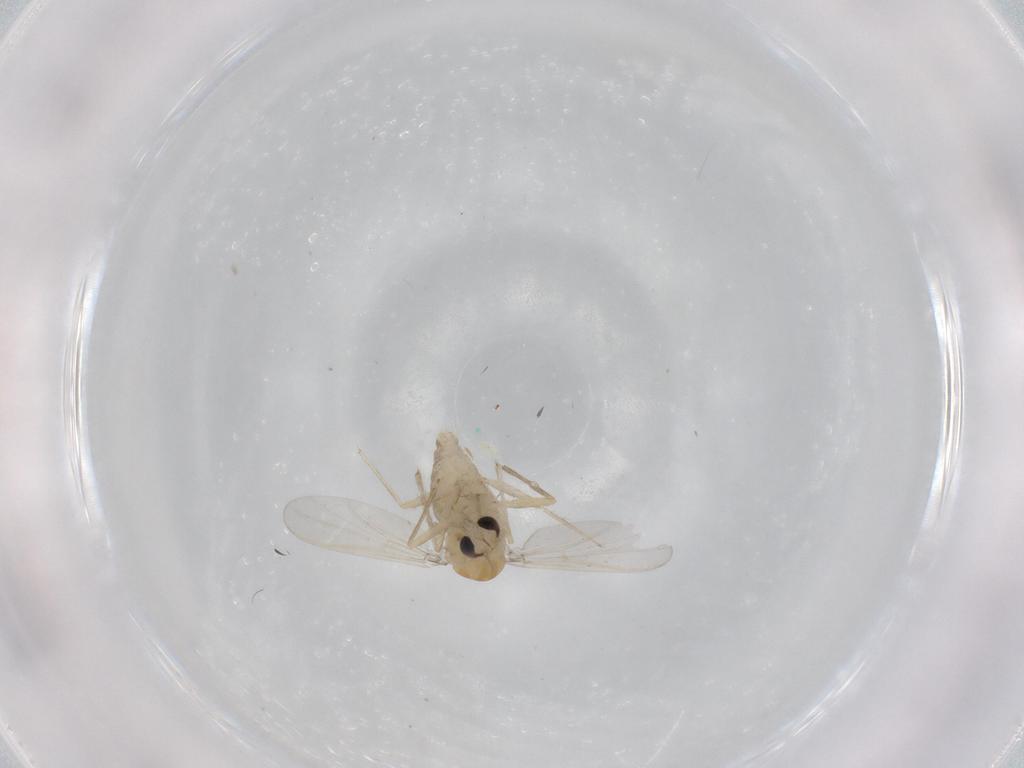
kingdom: Animalia
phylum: Arthropoda
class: Insecta
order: Diptera
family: Chironomidae
